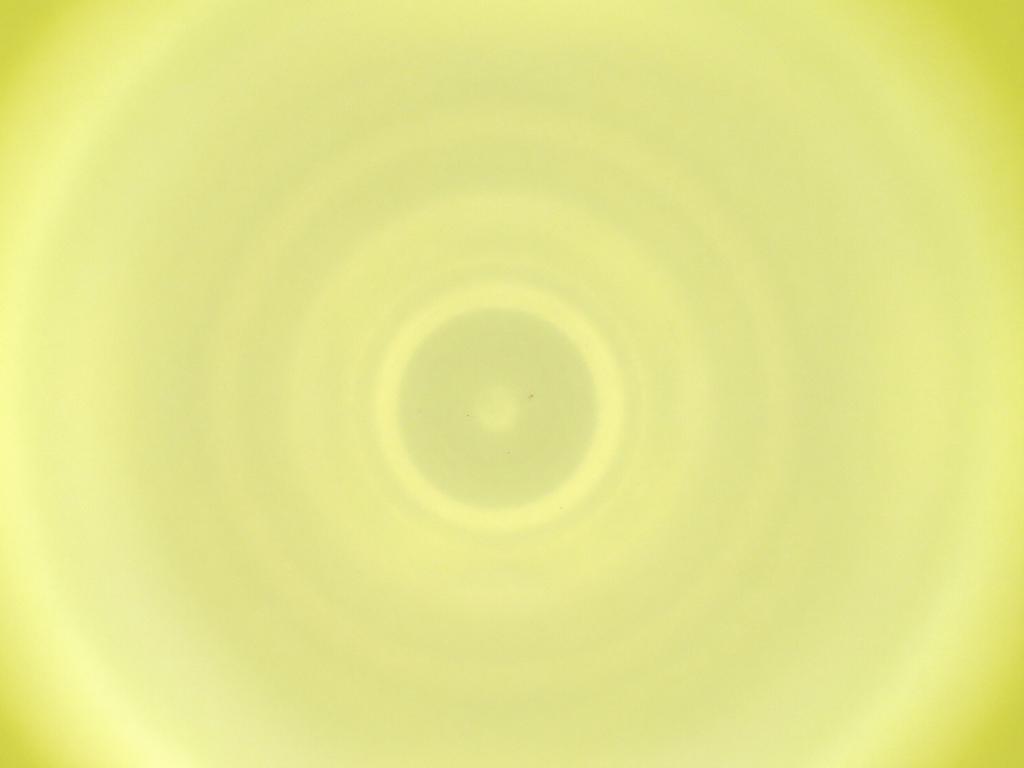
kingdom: Animalia
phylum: Arthropoda
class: Insecta
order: Diptera
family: Cecidomyiidae
